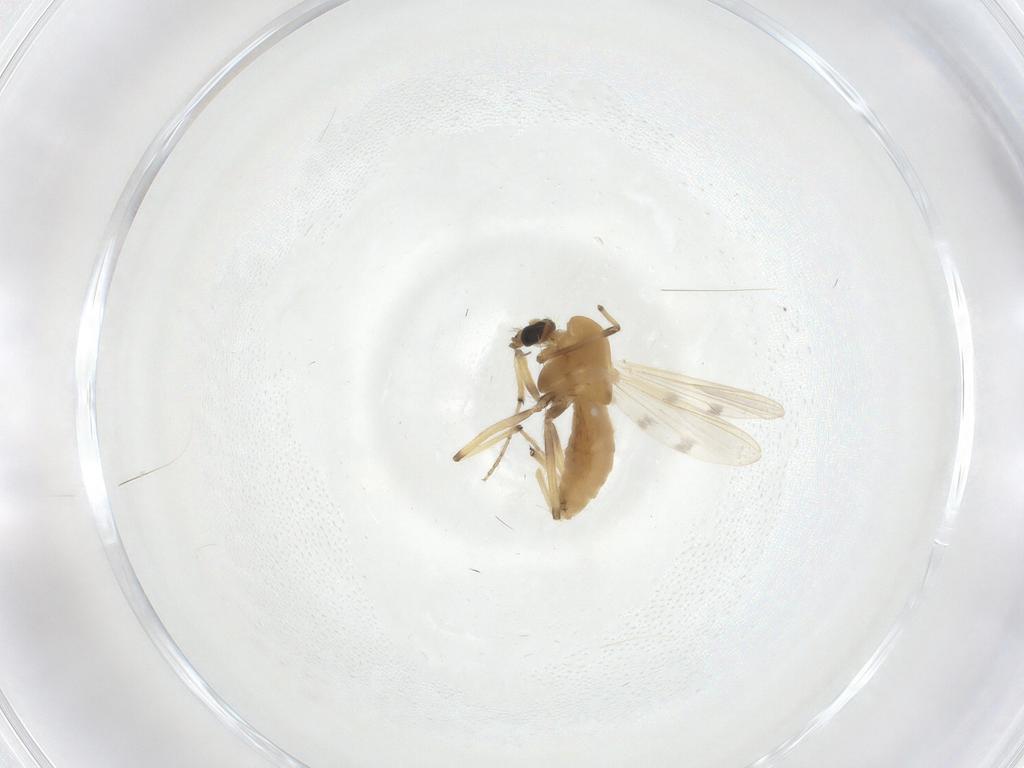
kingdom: Animalia
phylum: Arthropoda
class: Insecta
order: Diptera
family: Chironomidae
